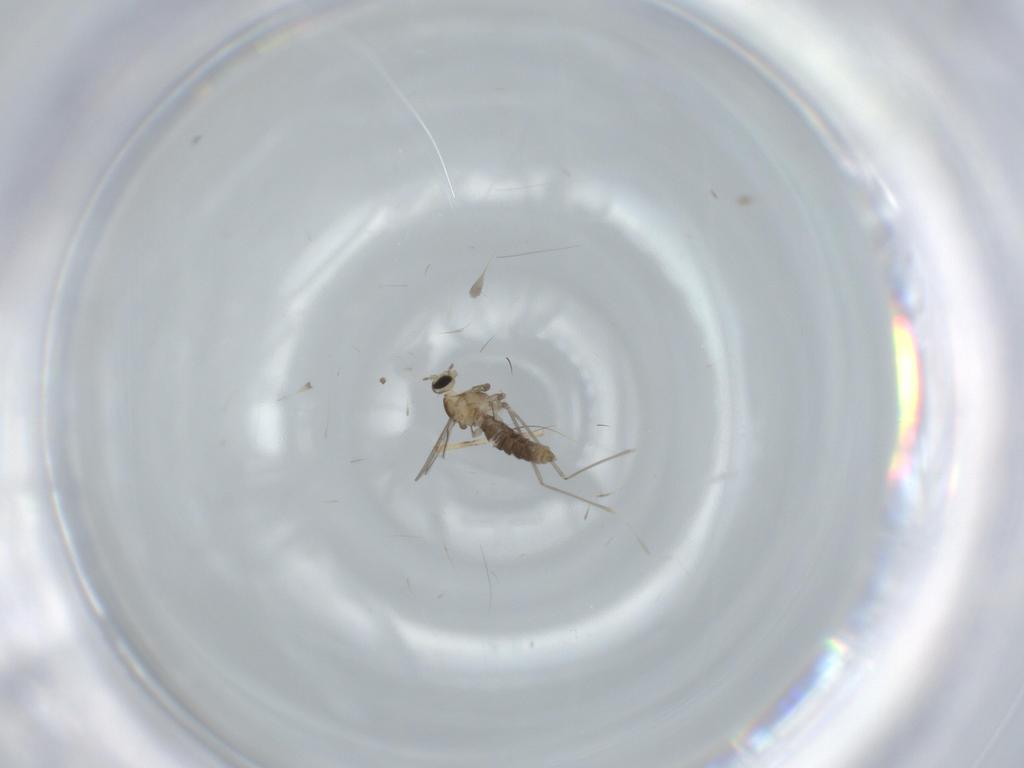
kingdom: Animalia
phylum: Arthropoda
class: Insecta
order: Diptera
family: Cecidomyiidae
